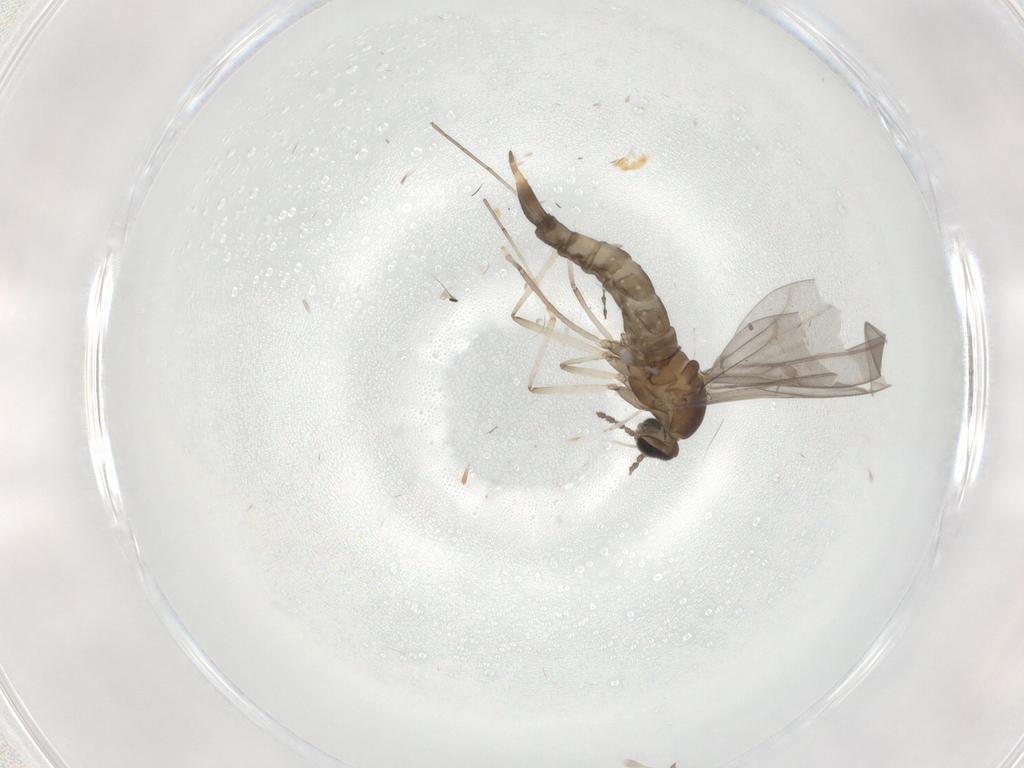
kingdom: Animalia
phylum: Arthropoda
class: Insecta
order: Diptera
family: Cecidomyiidae
